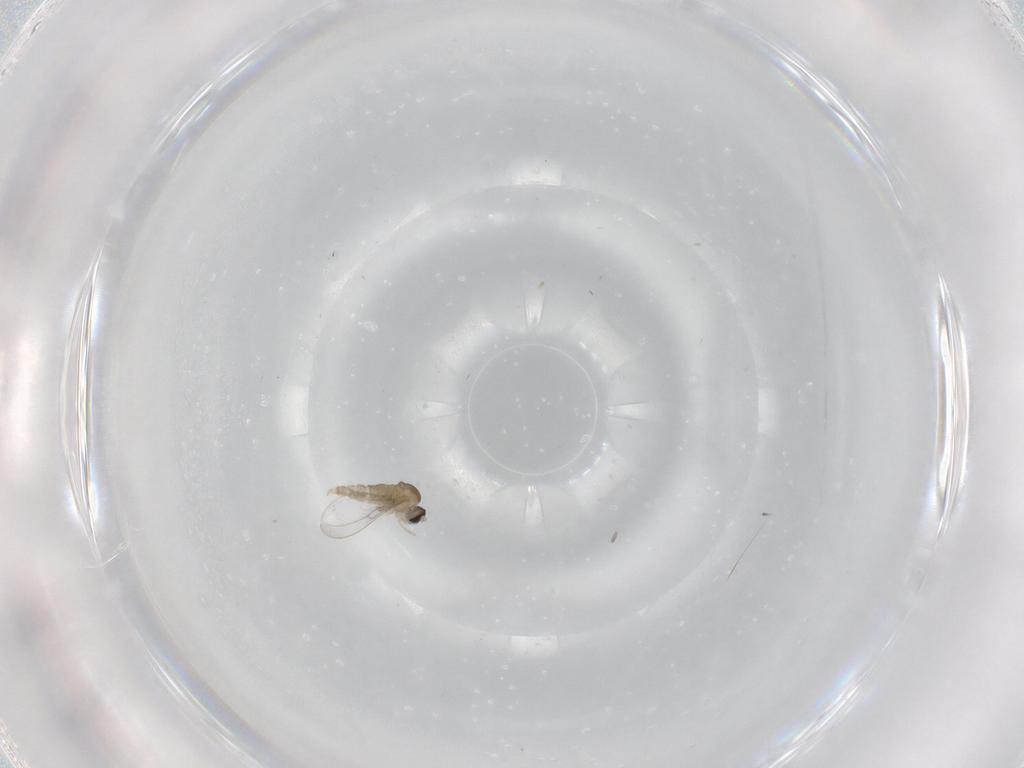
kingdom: Animalia
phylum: Arthropoda
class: Insecta
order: Diptera
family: Cecidomyiidae
